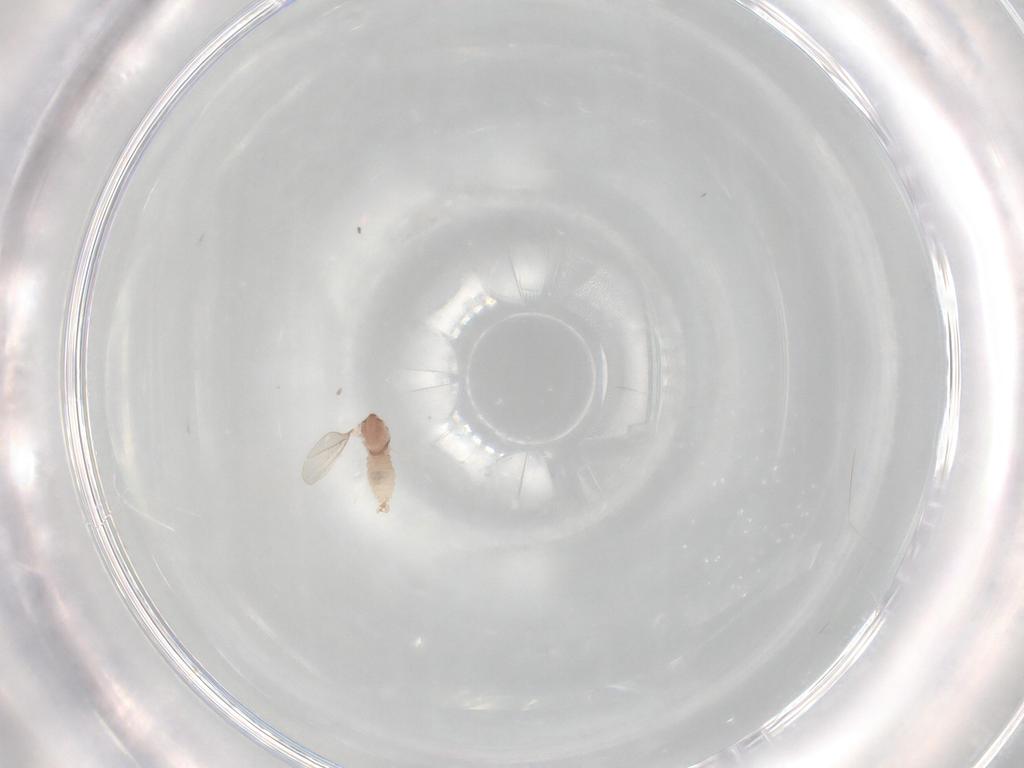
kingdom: Animalia
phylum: Arthropoda
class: Insecta
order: Diptera
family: Cecidomyiidae
